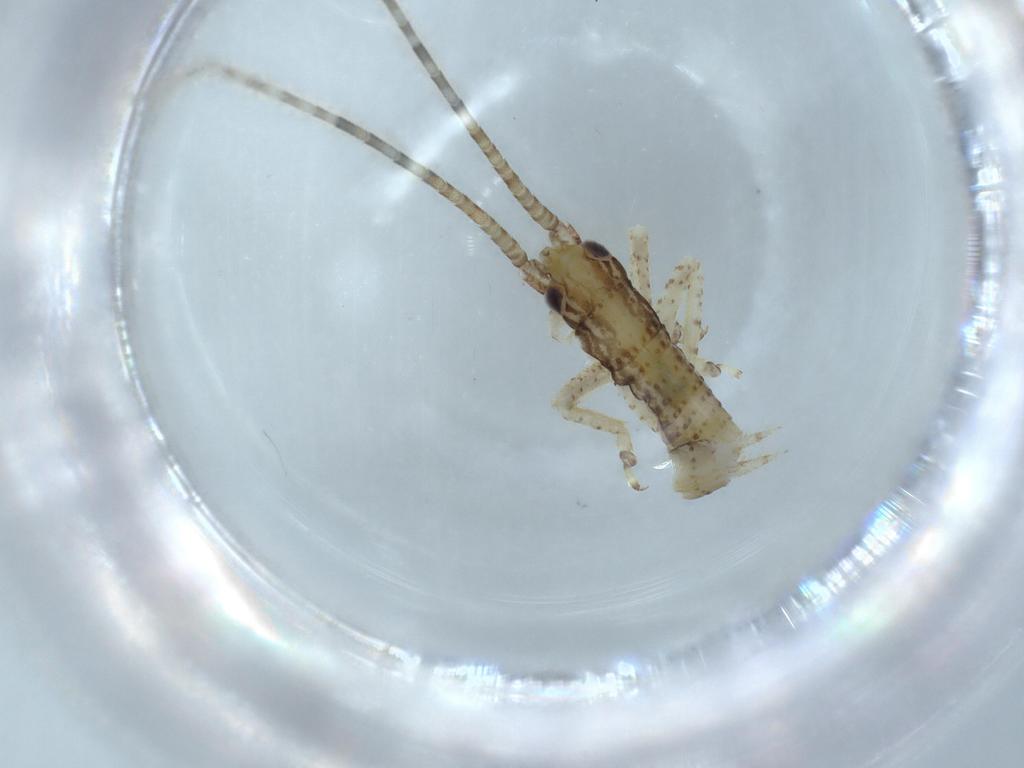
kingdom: Animalia
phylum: Arthropoda
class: Insecta
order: Orthoptera
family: Gryllidae
